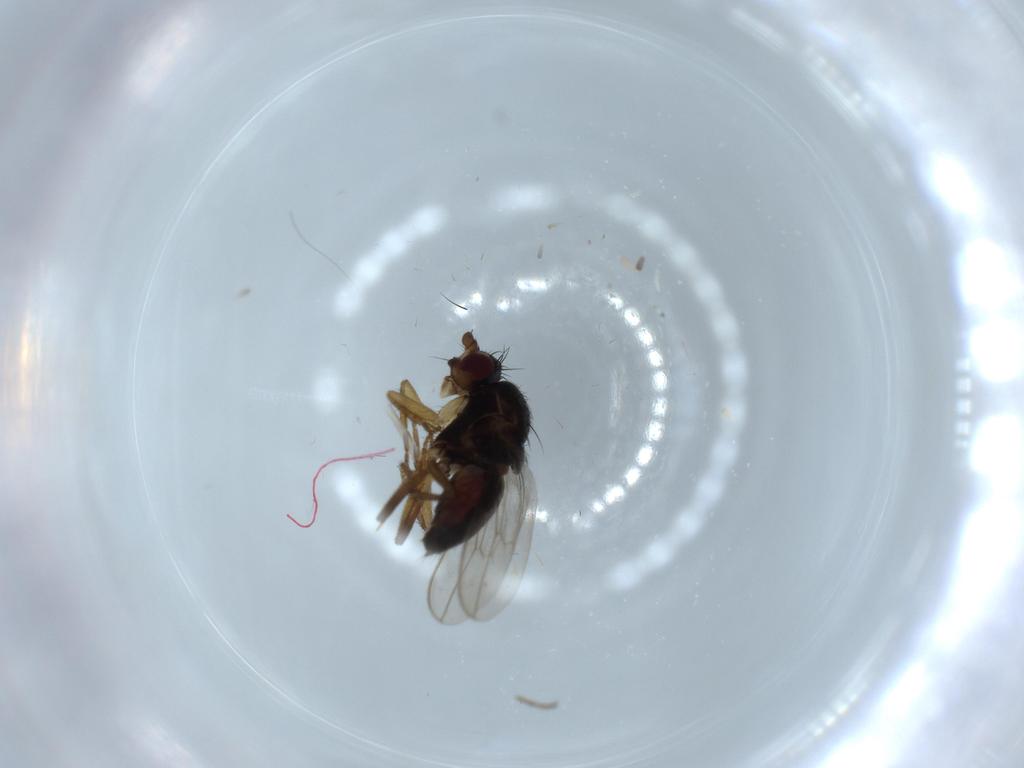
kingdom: Animalia
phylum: Arthropoda
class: Insecta
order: Diptera
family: Sphaeroceridae
